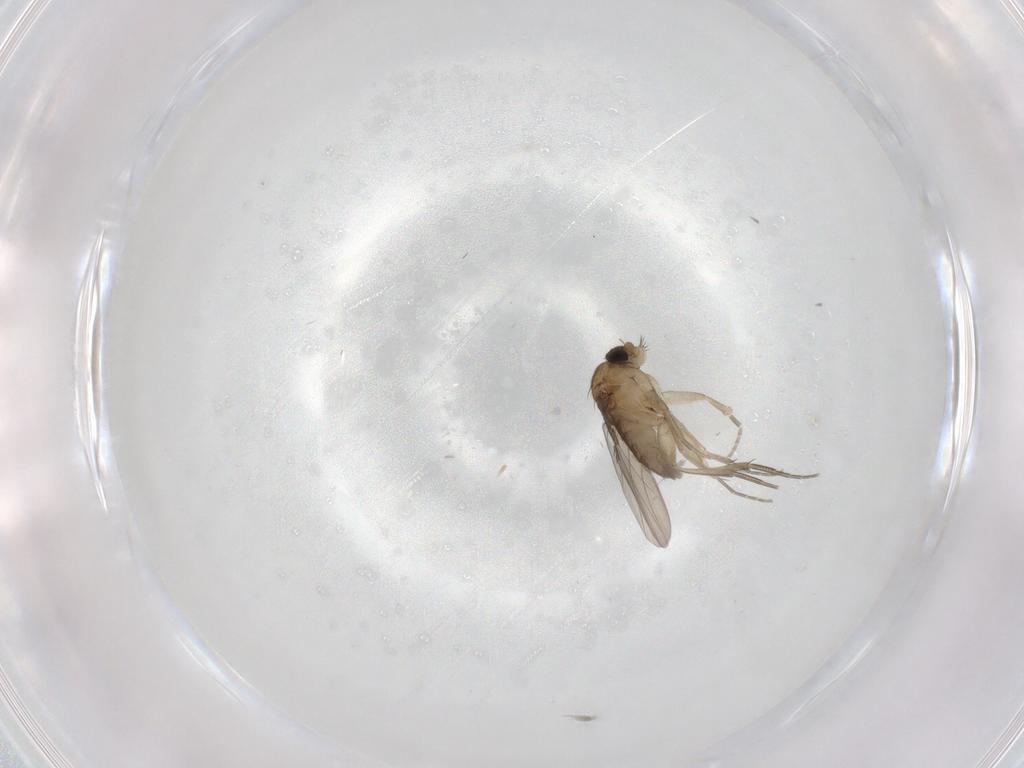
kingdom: Animalia
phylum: Arthropoda
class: Insecta
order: Diptera
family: Phoridae
